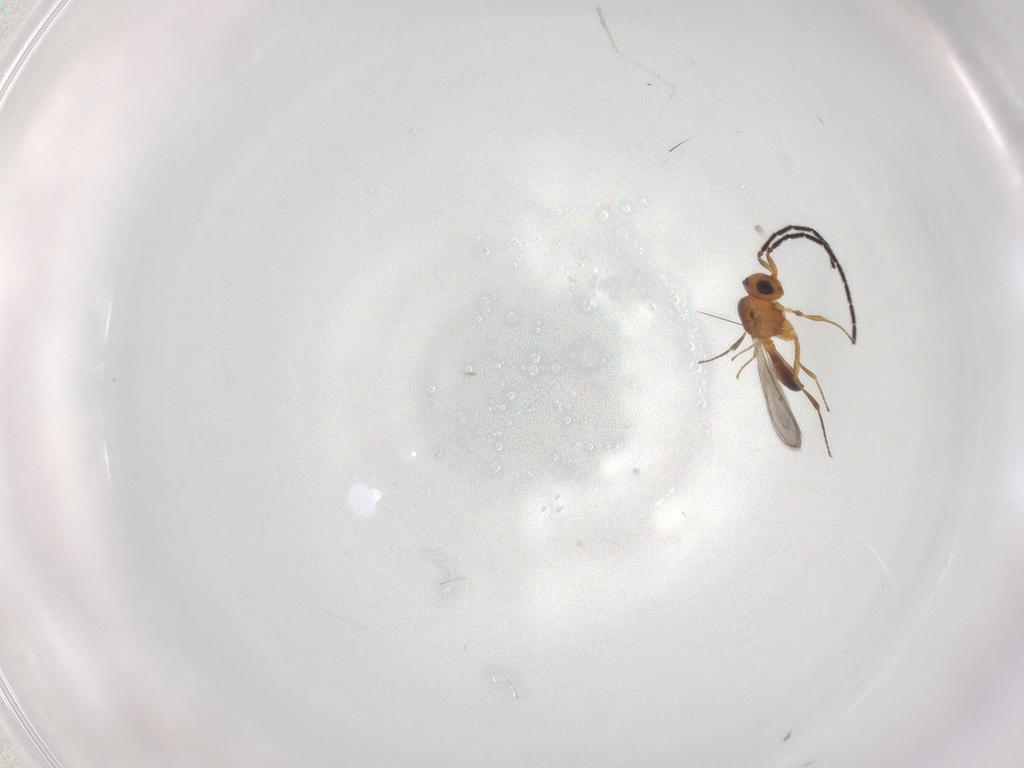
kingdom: Animalia
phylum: Arthropoda
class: Insecta
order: Hymenoptera
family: Scelionidae
